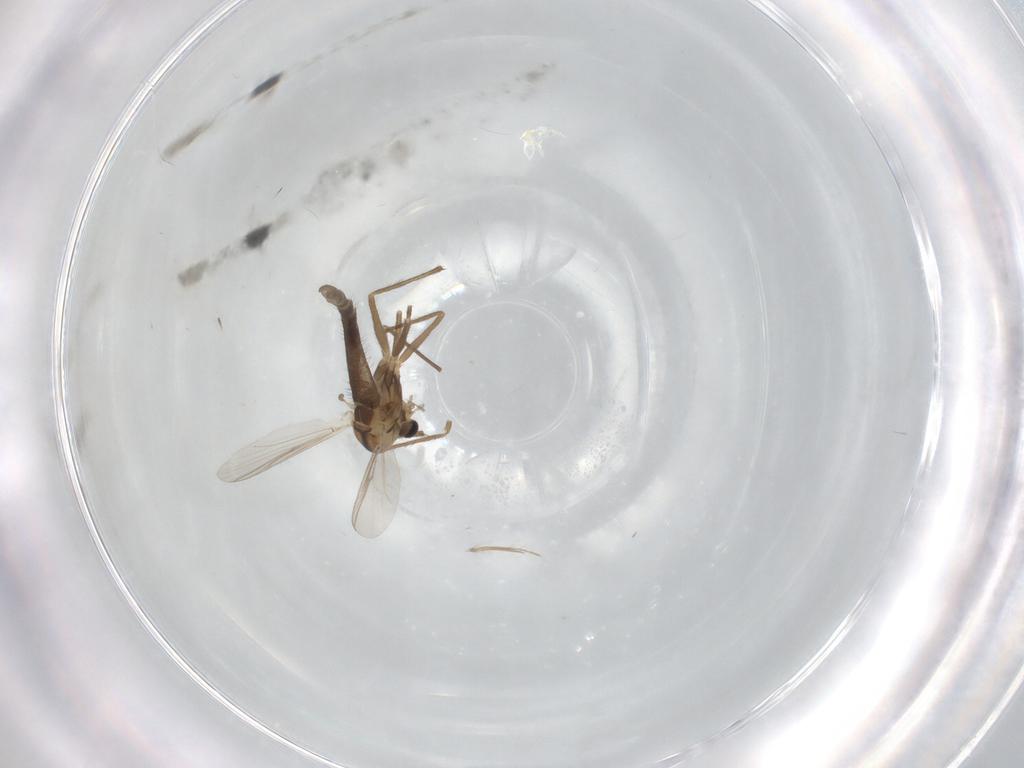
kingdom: Animalia
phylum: Arthropoda
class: Insecta
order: Diptera
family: Chironomidae
